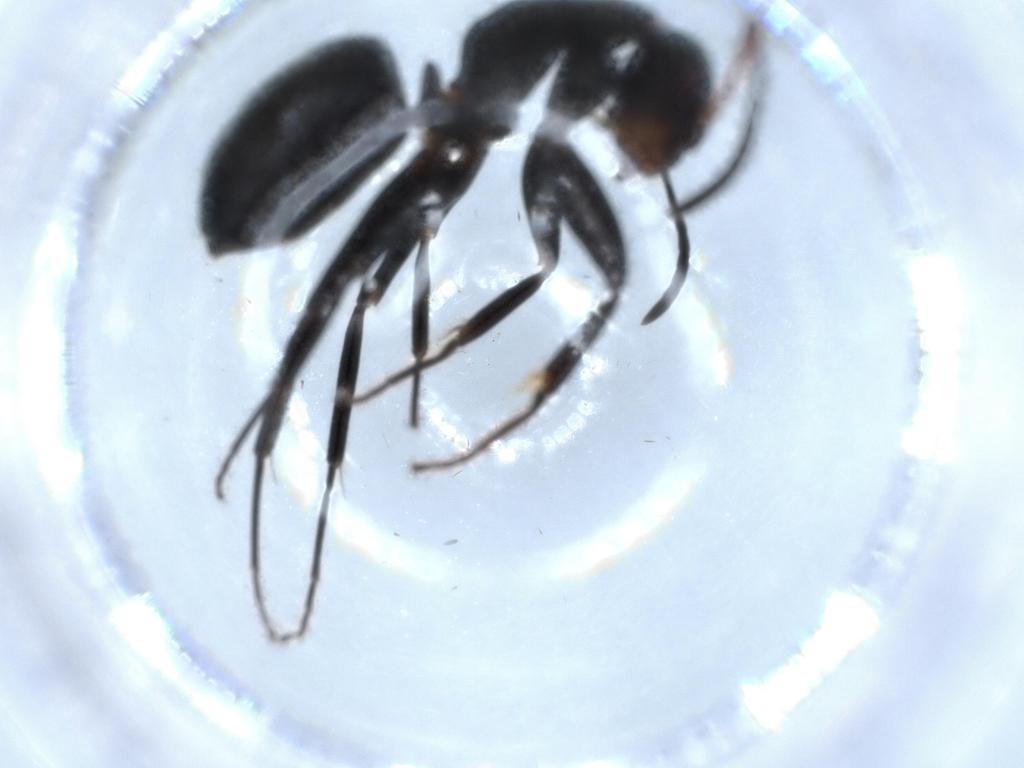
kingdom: Animalia
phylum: Arthropoda
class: Insecta
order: Hymenoptera
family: Formicidae
